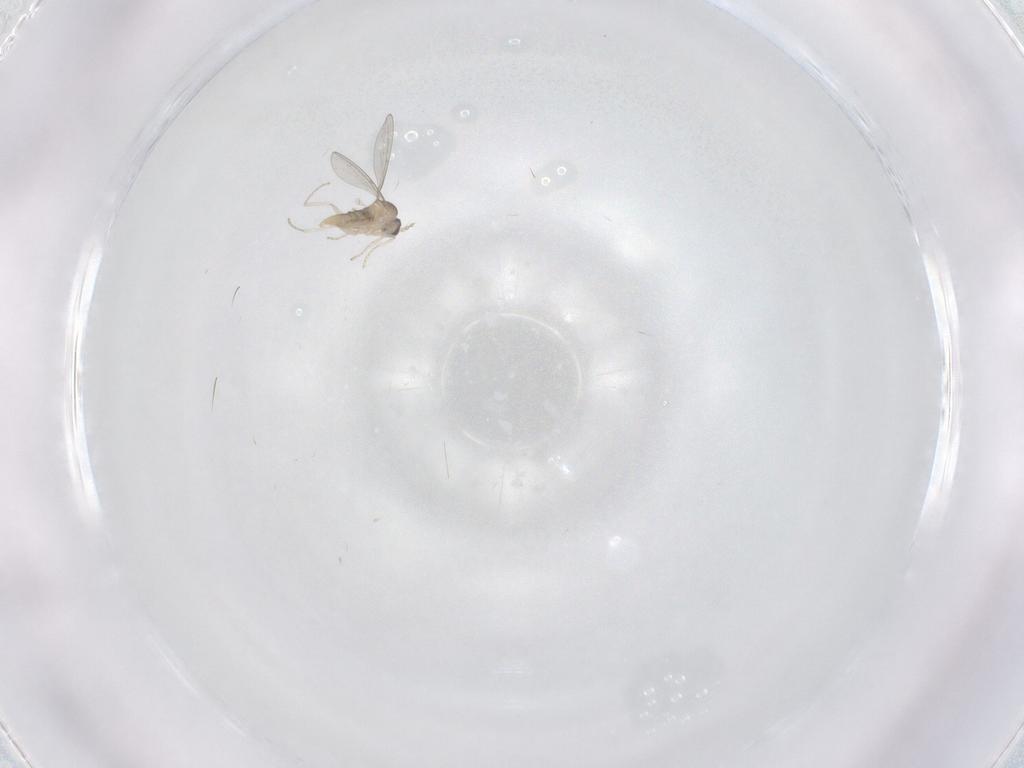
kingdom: Animalia
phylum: Arthropoda
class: Insecta
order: Diptera
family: Cecidomyiidae
